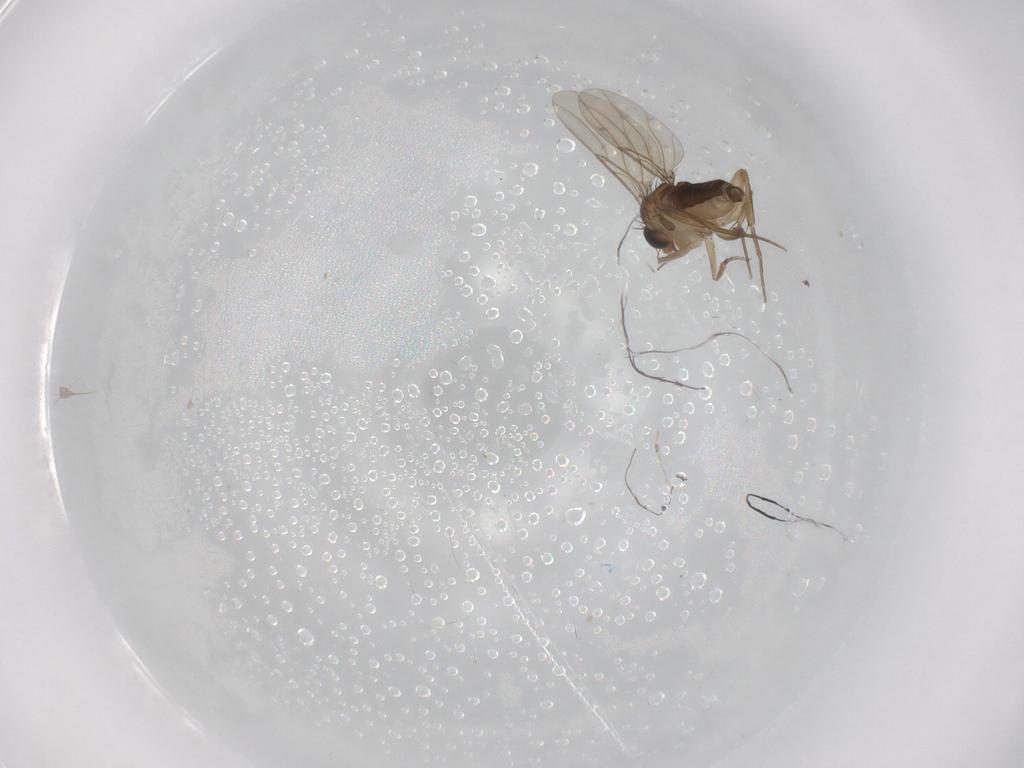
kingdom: Animalia
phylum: Arthropoda
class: Insecta
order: Diptera
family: Phoridae
